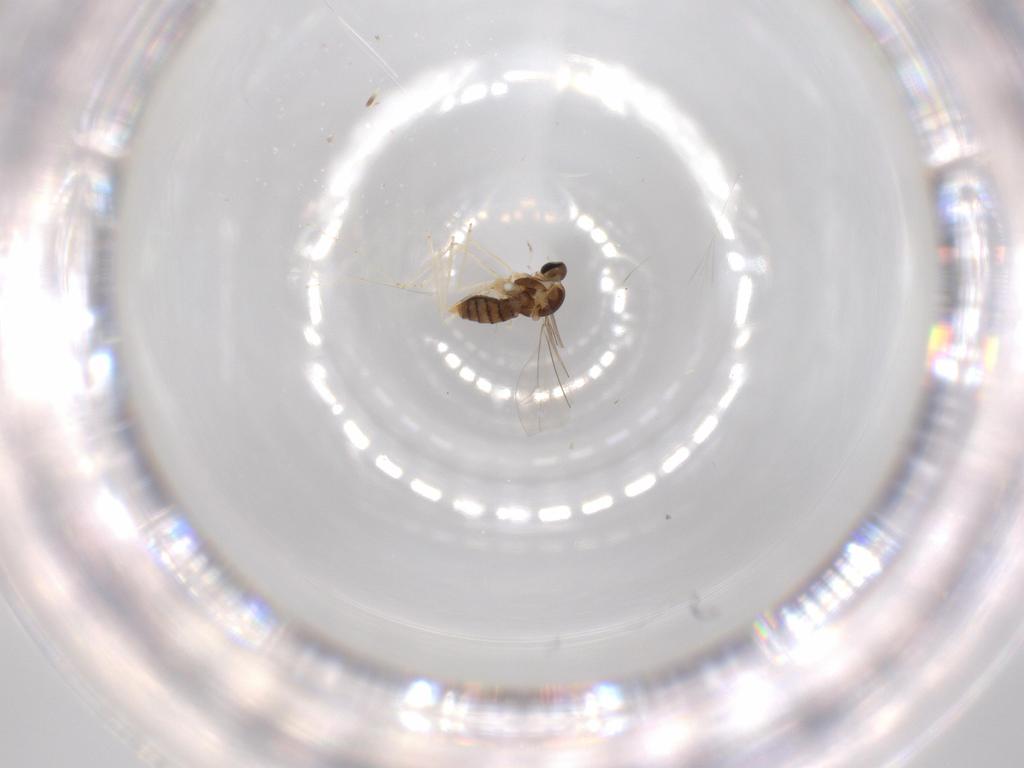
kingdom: Animalia
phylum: Arthropoda
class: Insecta
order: Diptera
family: Cecidomyiidae
